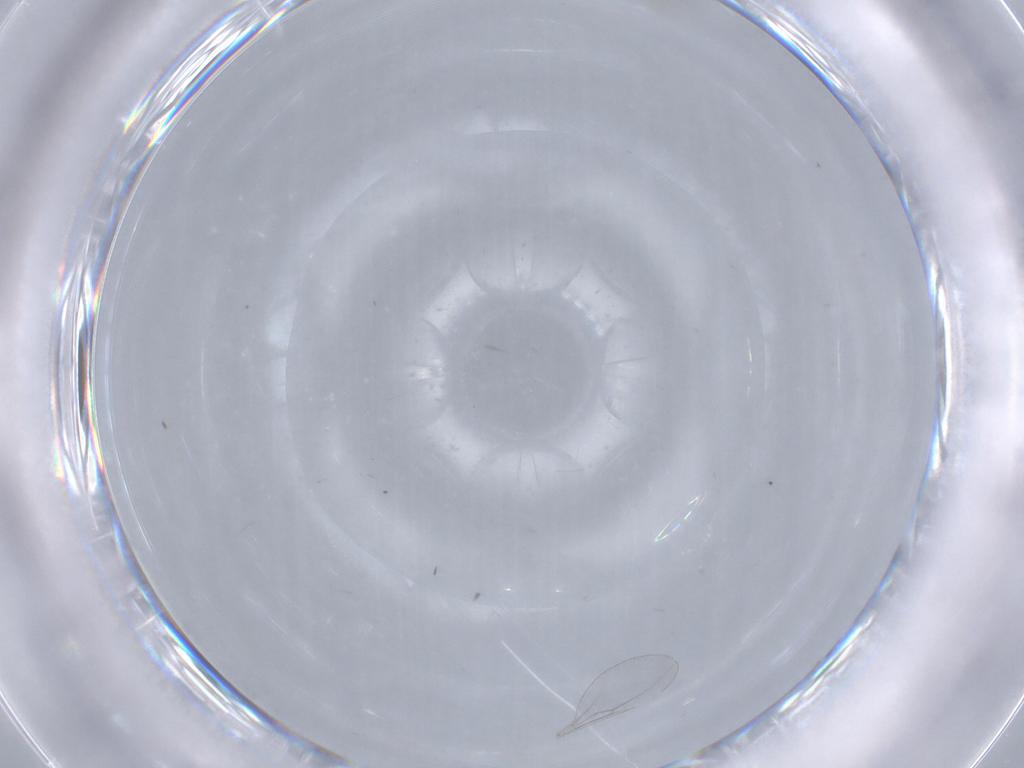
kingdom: Animalia
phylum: Arthropoda
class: Insecta
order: Diptera
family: Cecidomyiidae
